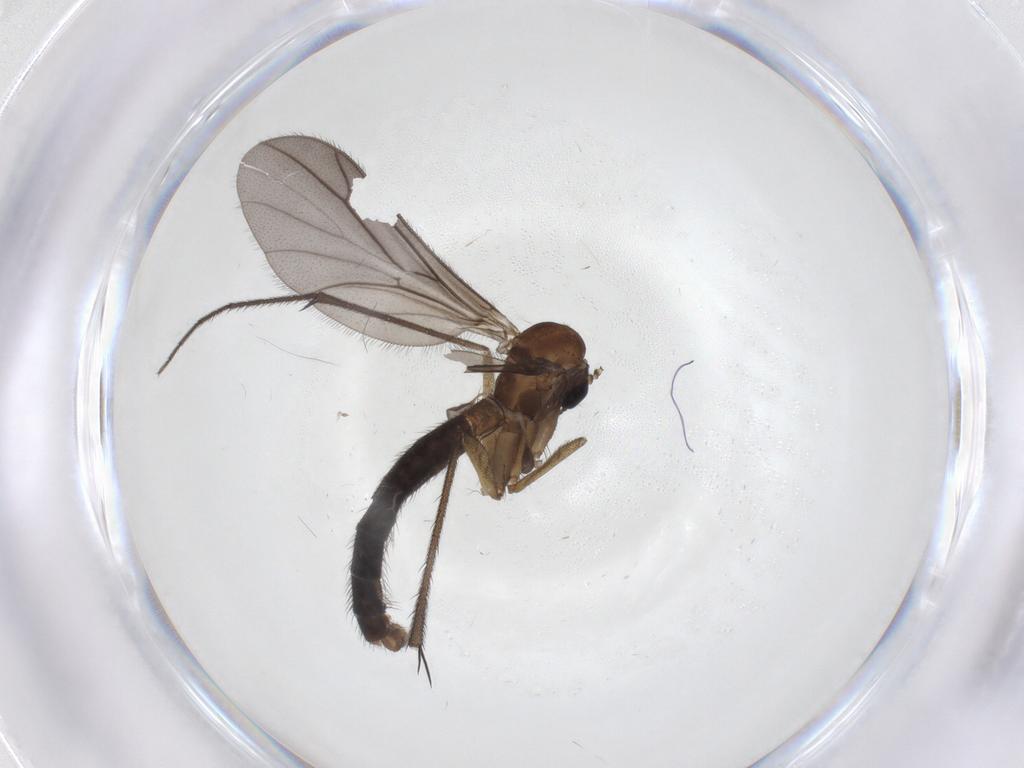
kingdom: Animalia
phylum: Arthropoda
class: Insecta
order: Diptera
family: Ditomyiidae
